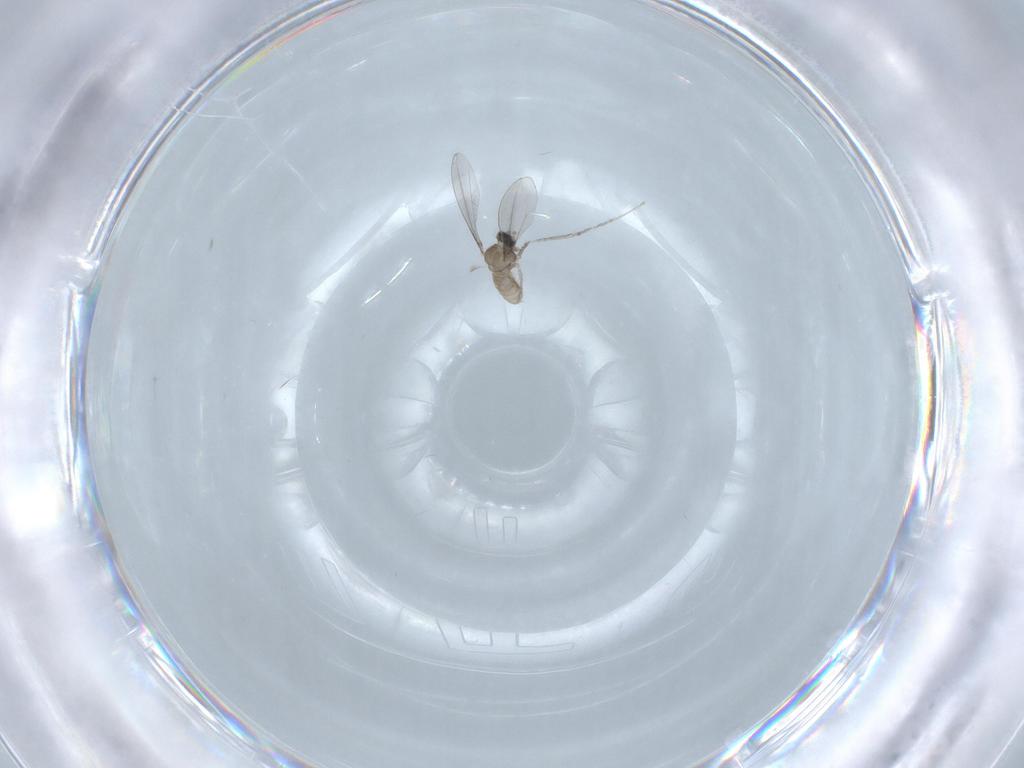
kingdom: Animalia
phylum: Arthropoda
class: Insecta
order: Diptera
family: Cecidomyiidae
